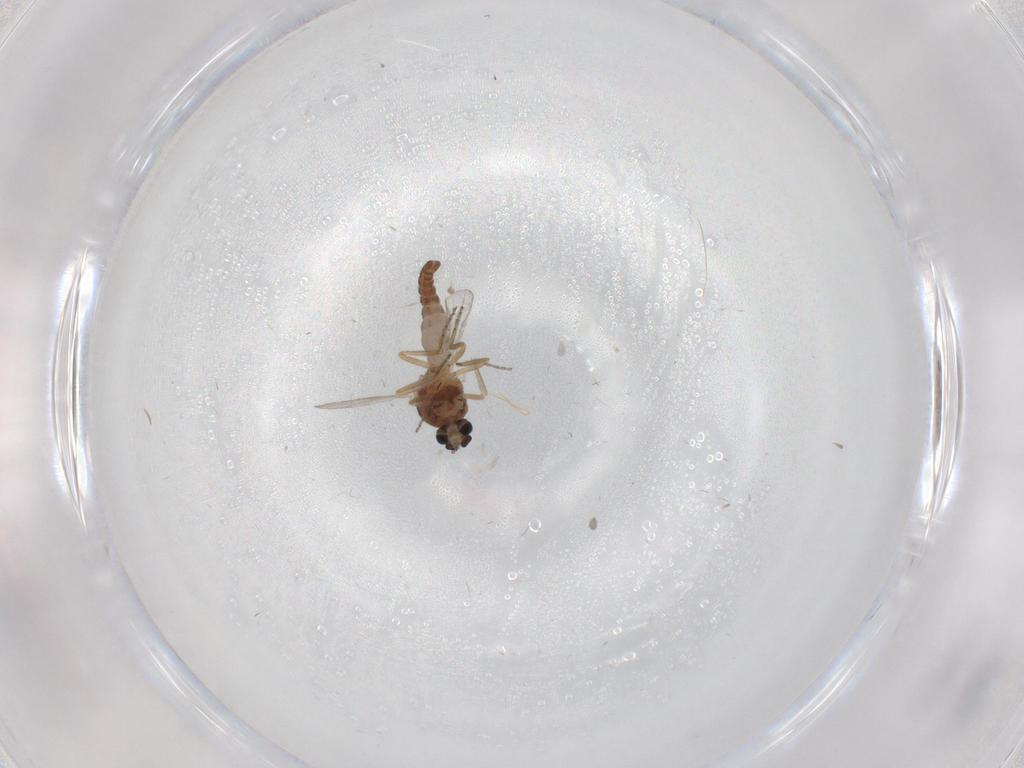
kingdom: Animalia
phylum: Arthropoda
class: Insecta
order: Diptera
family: Ceratopogonidae
